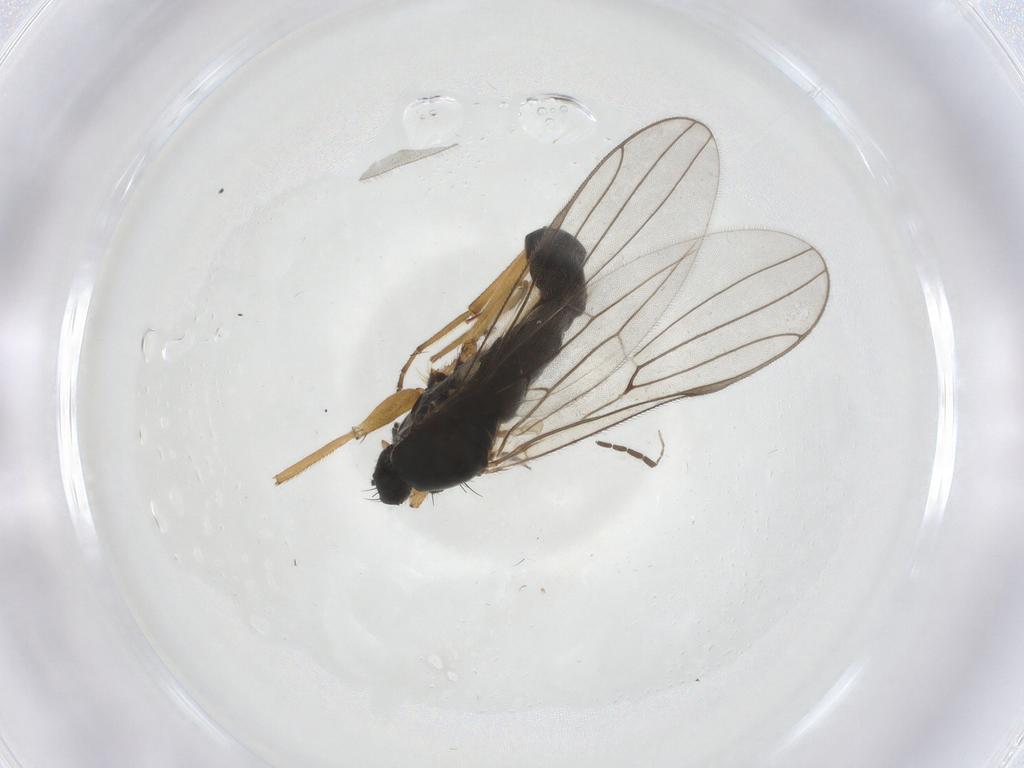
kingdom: Animalia
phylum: Arthropoda
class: Insecta
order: Diptera
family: Hybotidae
